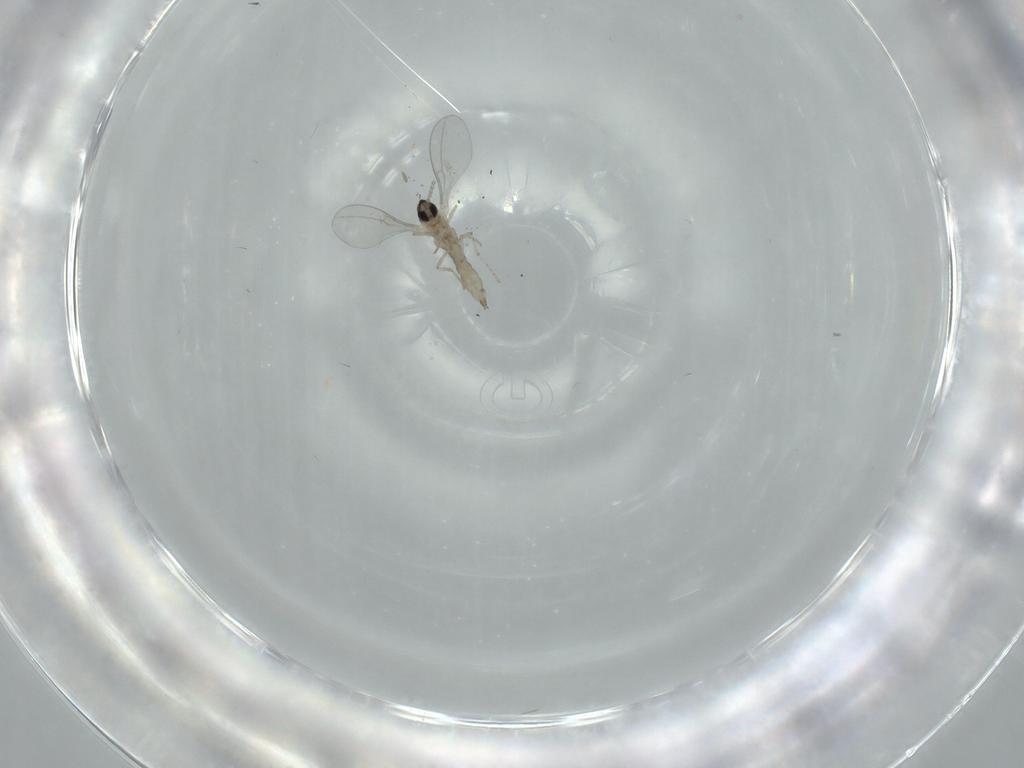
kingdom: Animalia
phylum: Arthropoda
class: Insecta
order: Diptera
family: Cecidomyiidae
